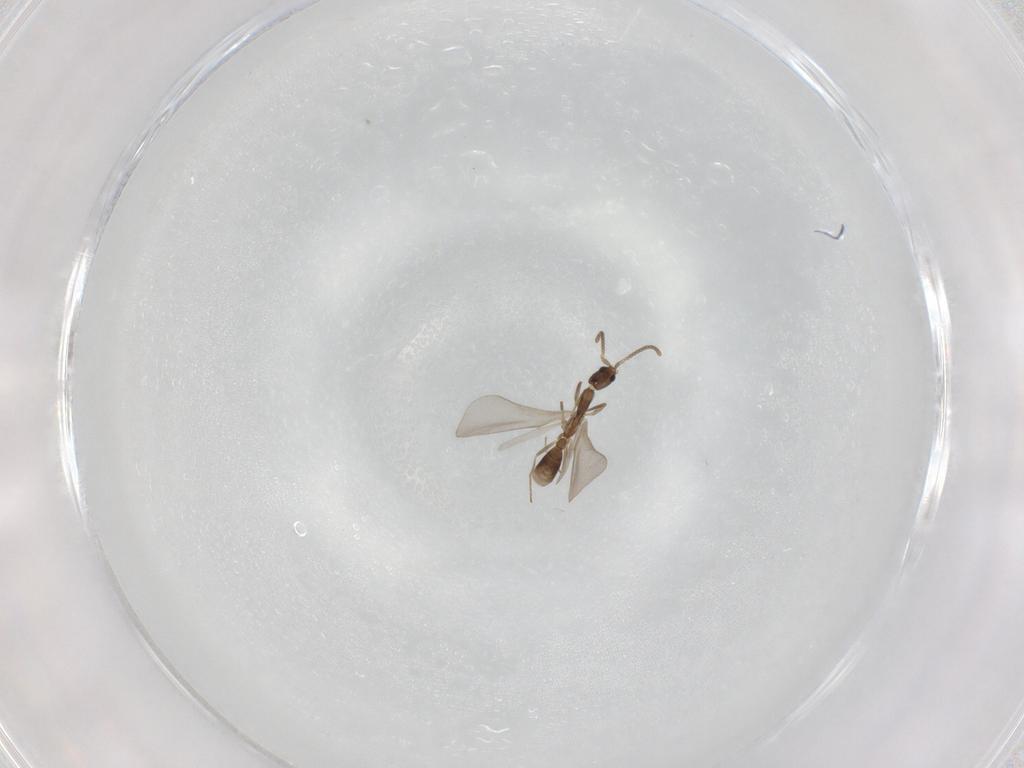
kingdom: Animalia
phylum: Arthropoda
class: Insecta
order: Hymenoptera
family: Formicidae
